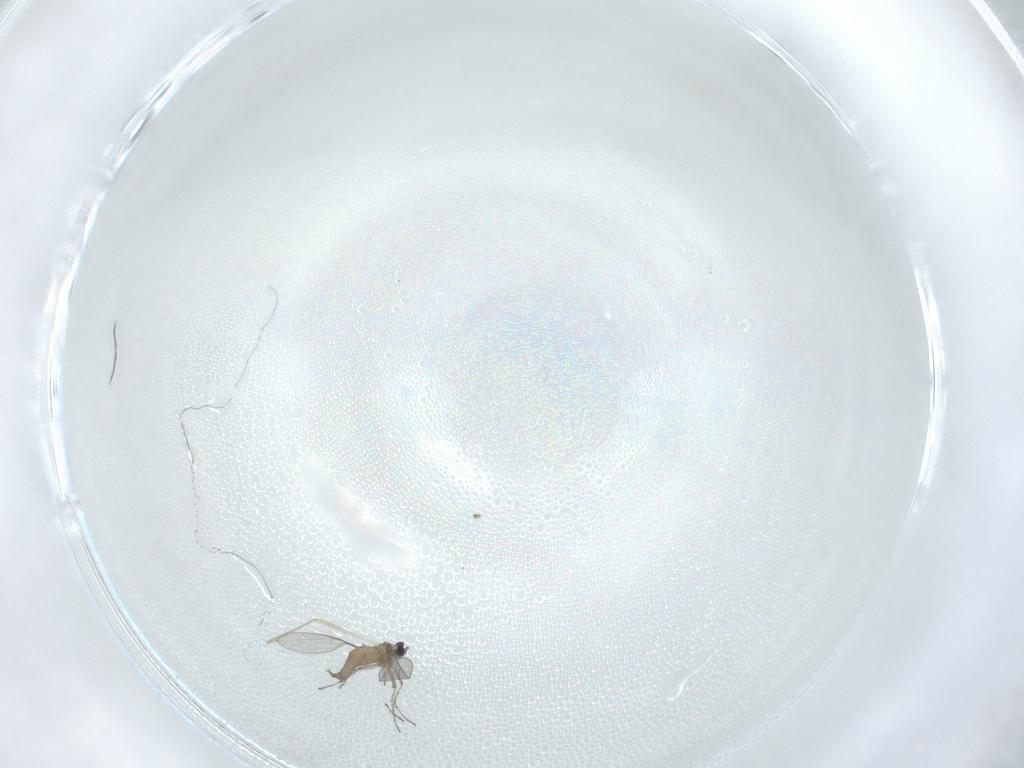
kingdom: Animalia
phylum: Arthropoda
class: Insecta
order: Diptera
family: Cecidomyiidae
